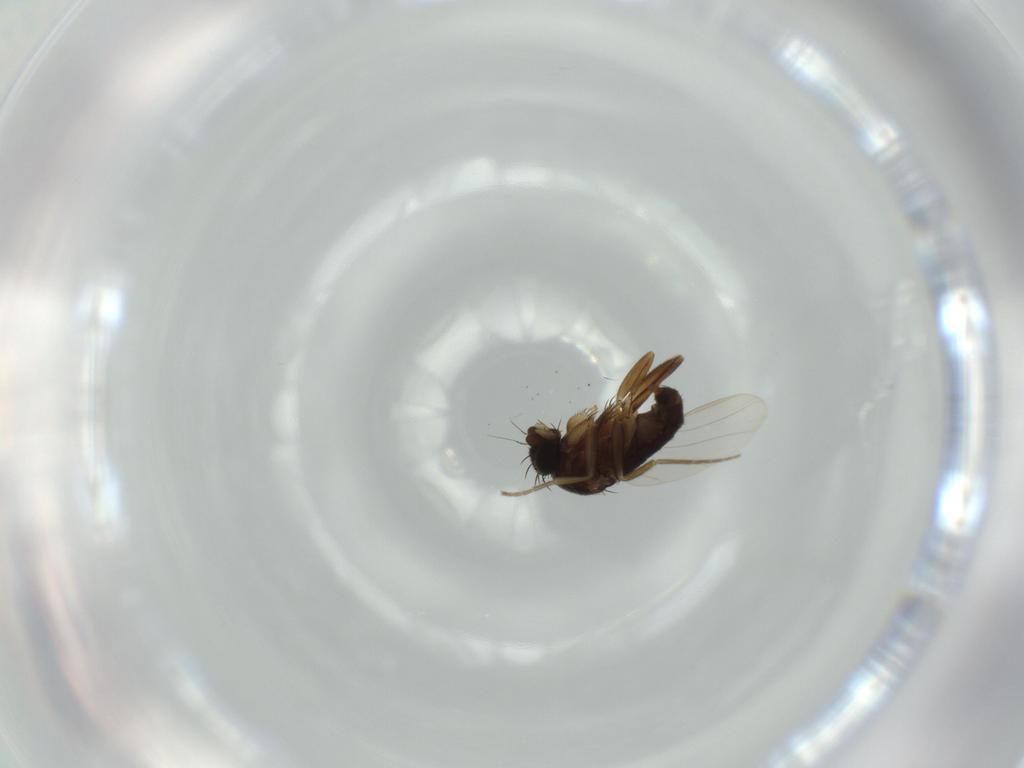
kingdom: Animalia
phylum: Arthropoda
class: Insecta
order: Diptera
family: Phoridae
